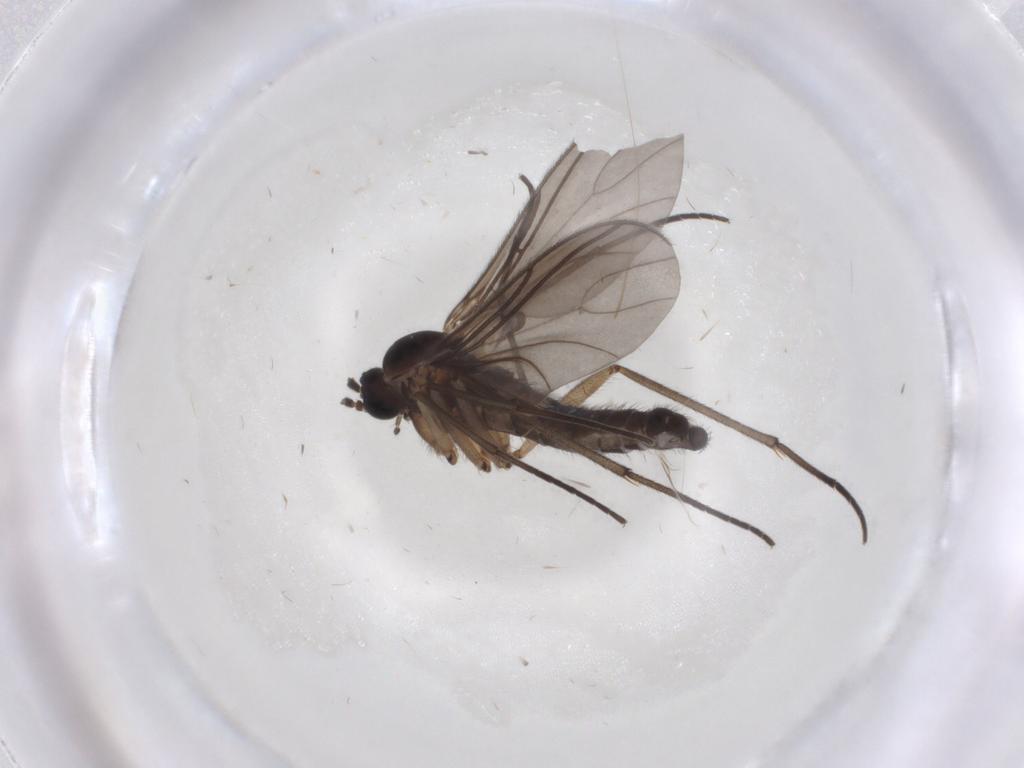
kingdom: Animalia
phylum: Arthropoda
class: Insecta
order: Diptera
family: Sciaridae
